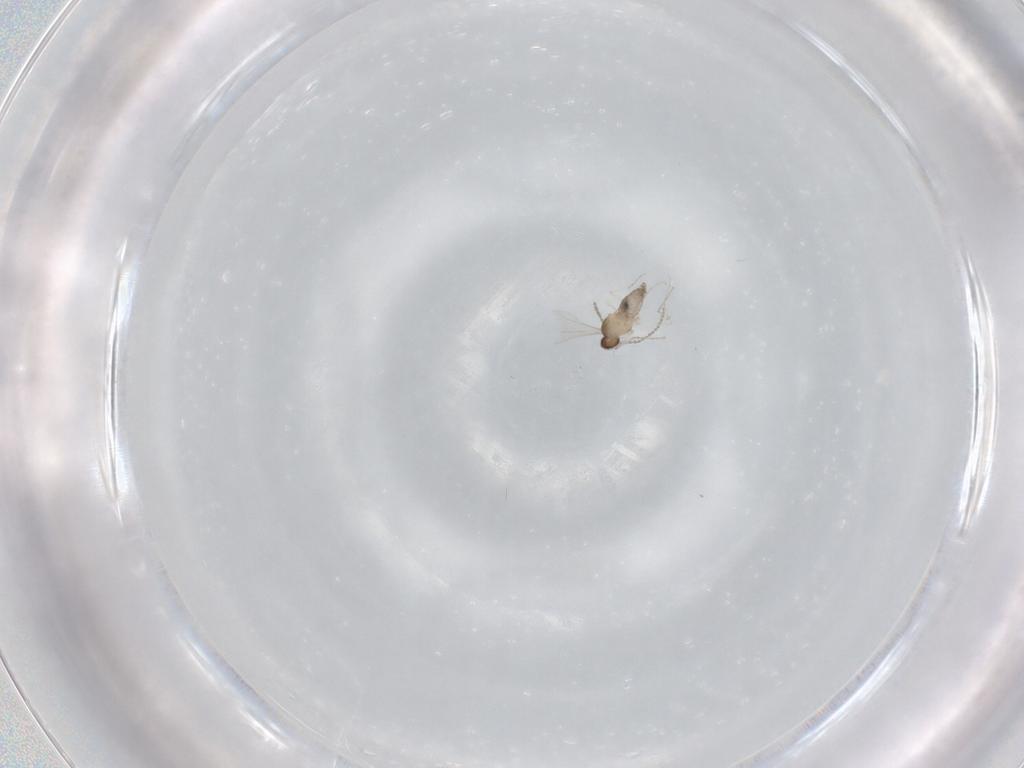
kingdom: Animalia
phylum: Arthropoda
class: Insecta
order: Diptera
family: Cecidomyiidae
